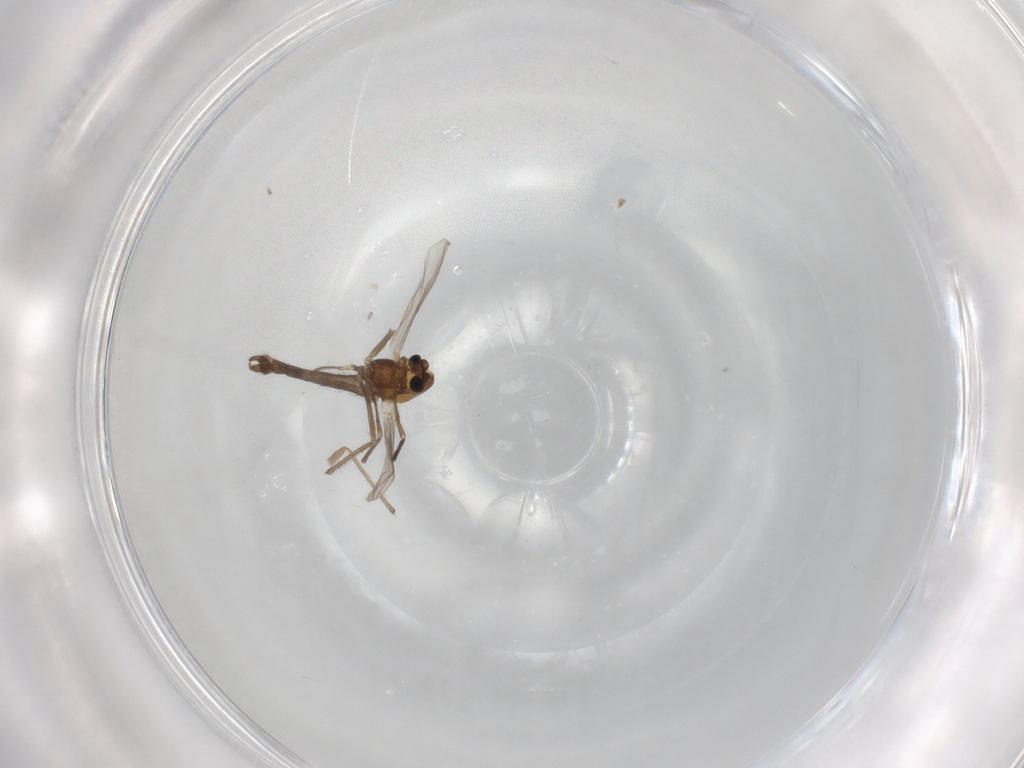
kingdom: Animalia
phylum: Arthropoda
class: Insecta
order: Diptera
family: Chironomidae
